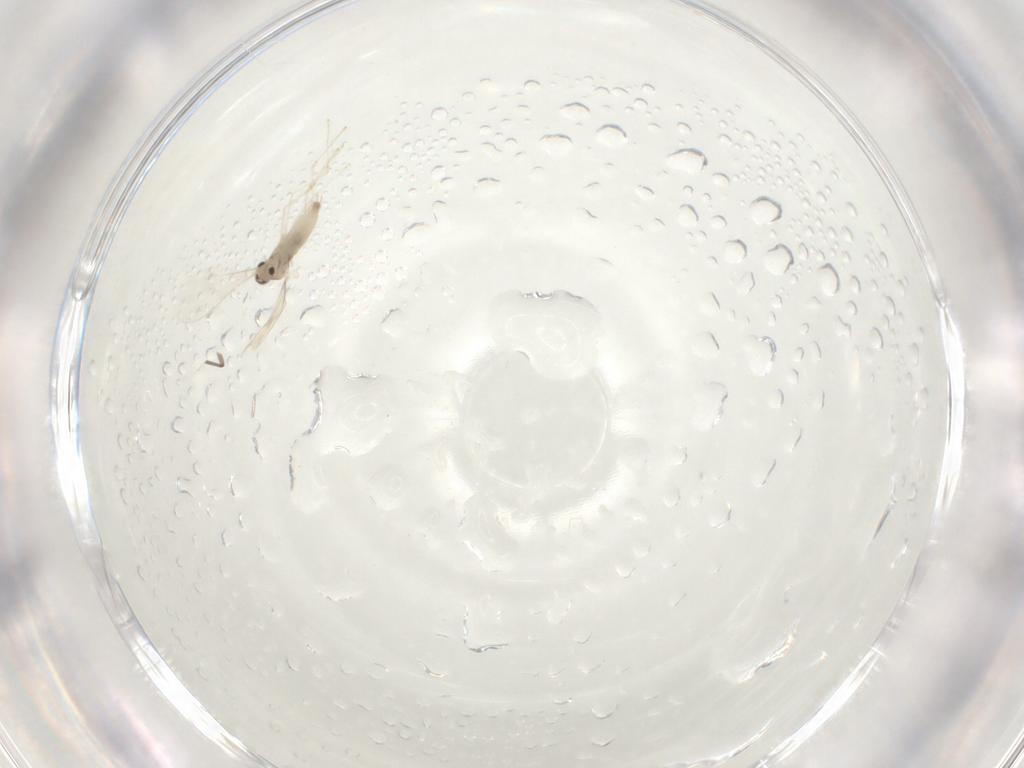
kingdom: Animalia
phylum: Arthropoda
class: Insecta
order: Diptera
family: Cecidomyiidae
